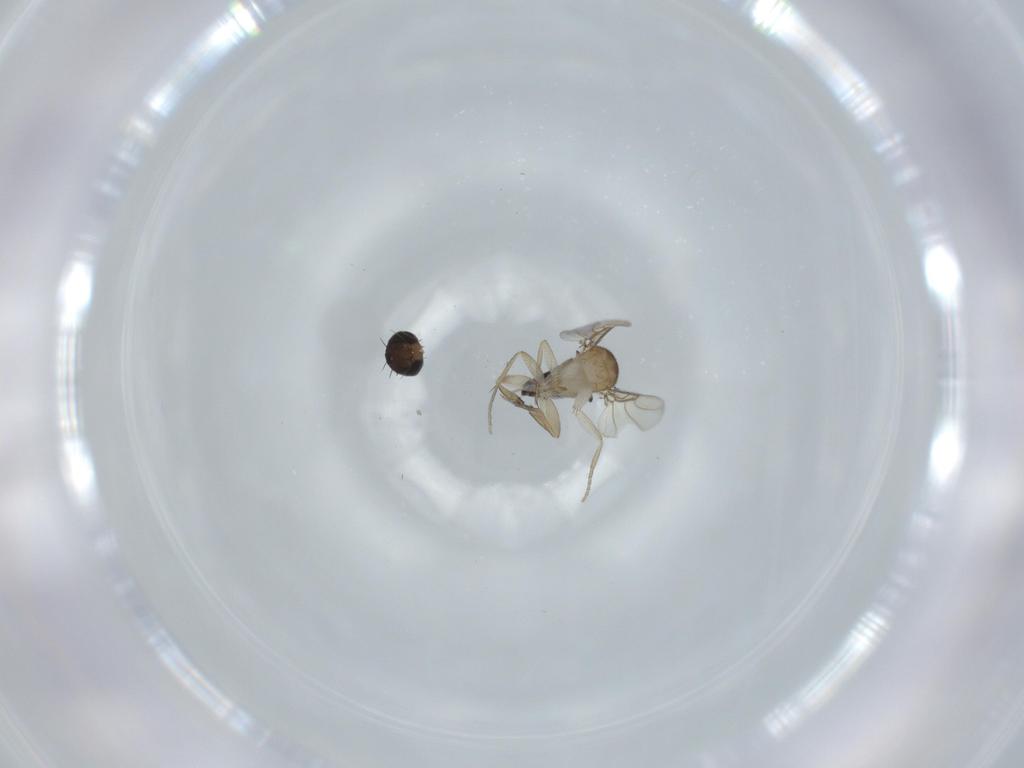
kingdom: Animalia
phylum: Arthropoda
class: Insecta
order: Diptera
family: Phoridae
